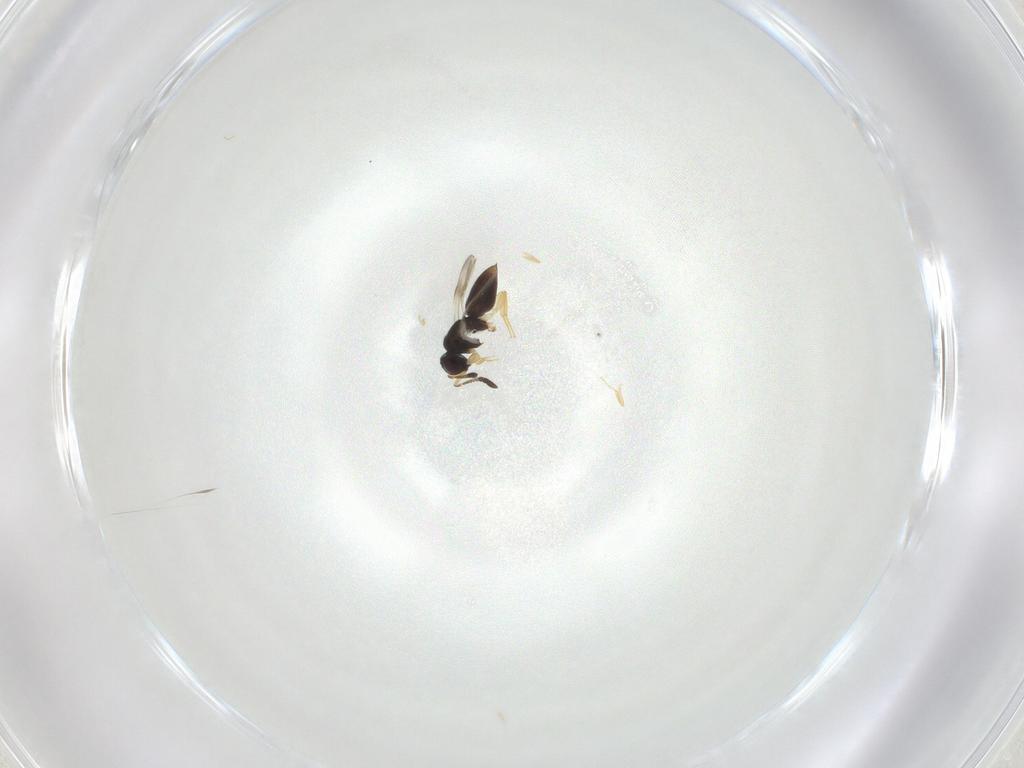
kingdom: Animalia
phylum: Arthropoda
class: Insecta
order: Hymenoptera
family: Eulophidae
